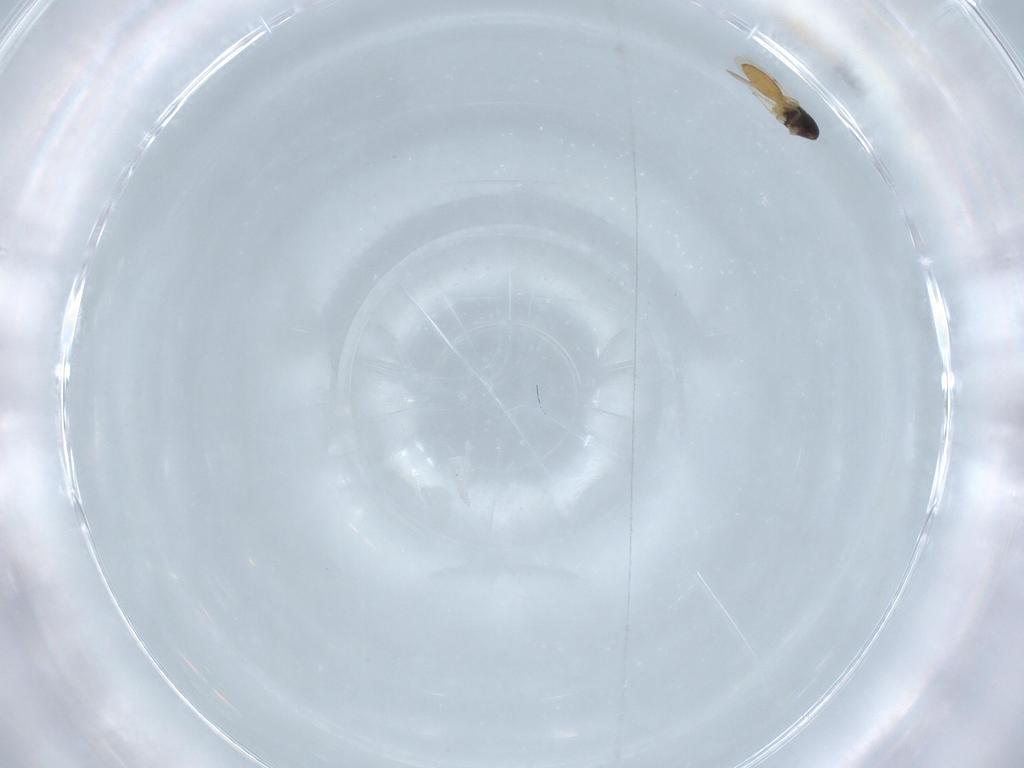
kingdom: Animalia
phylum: Arthropoda
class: Insecta
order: Hymenoptera
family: Scelionidae
